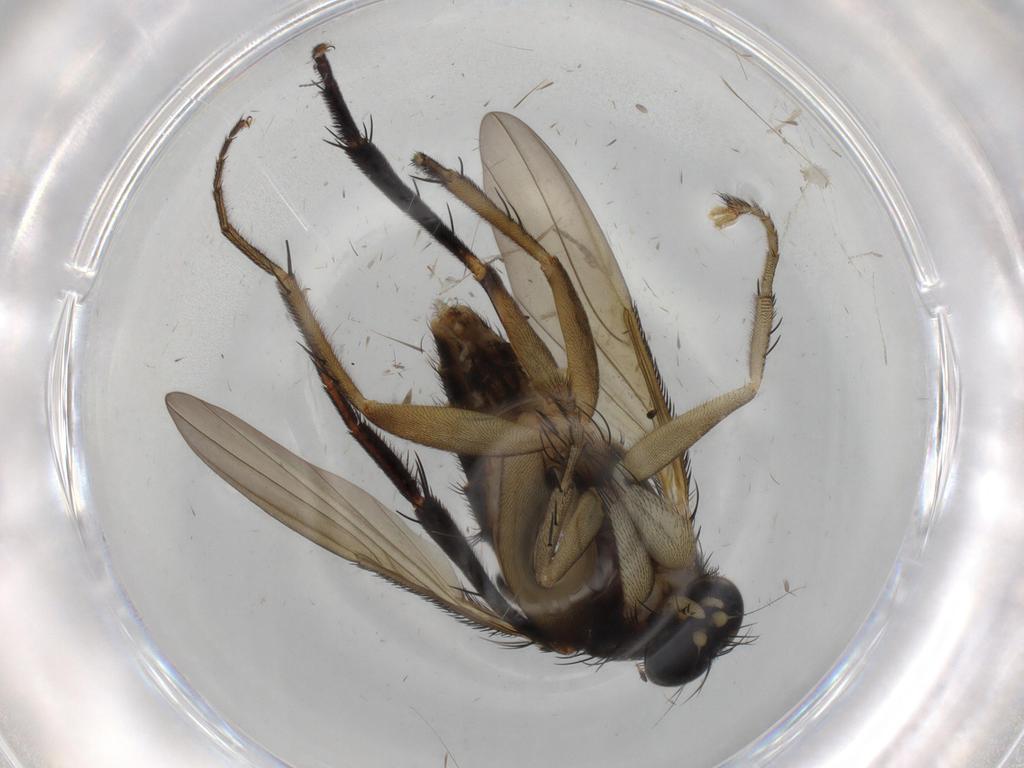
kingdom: Animalia
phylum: Arthropoda
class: Insecta
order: Diptera
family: Phoridae
